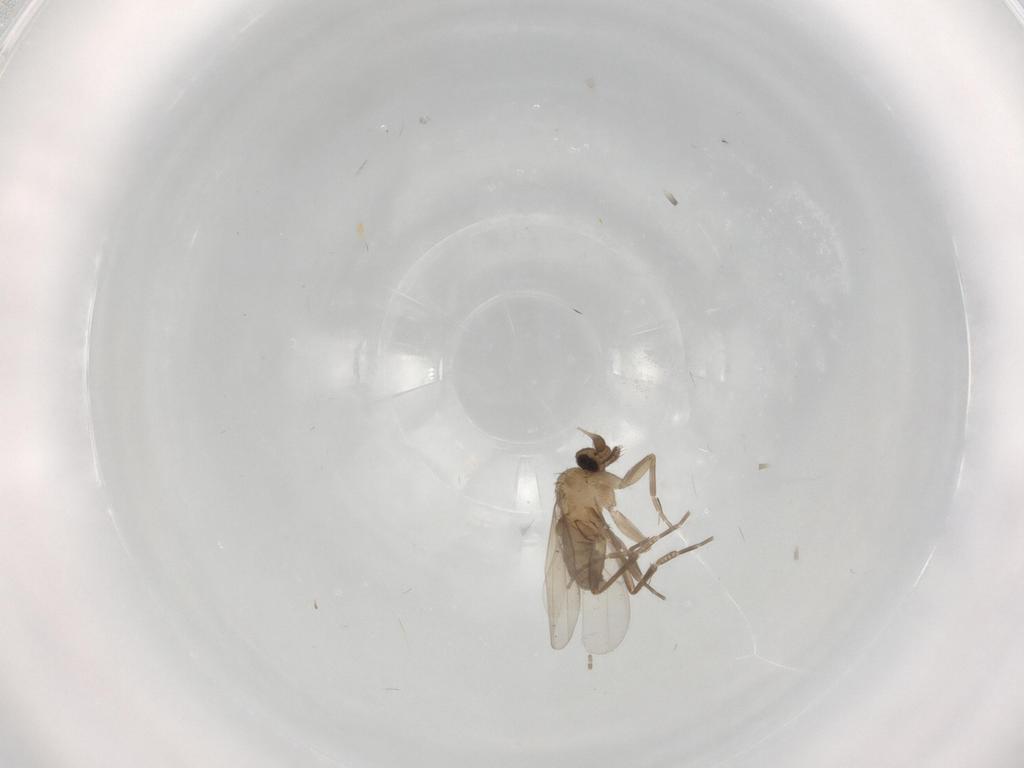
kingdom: Animalia
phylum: Arthropoda
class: Insecta
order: Diptera
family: Phoridae
